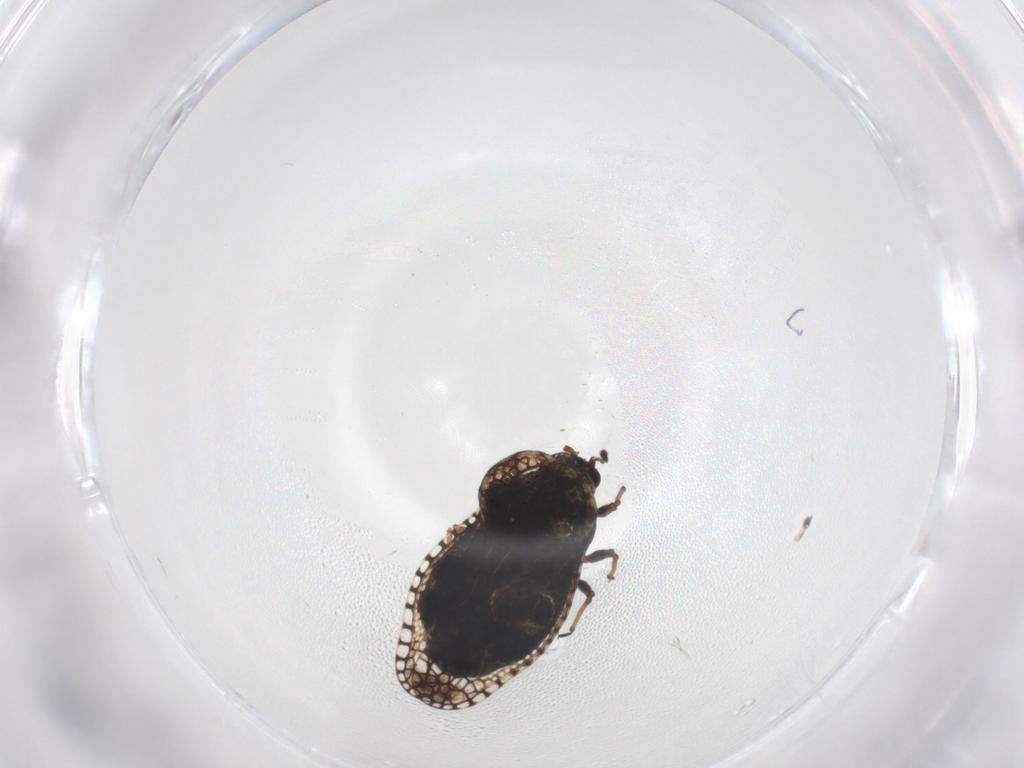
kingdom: Animalia
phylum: Arthropoda
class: Insecta
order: Hemiptera
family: Tingidae
